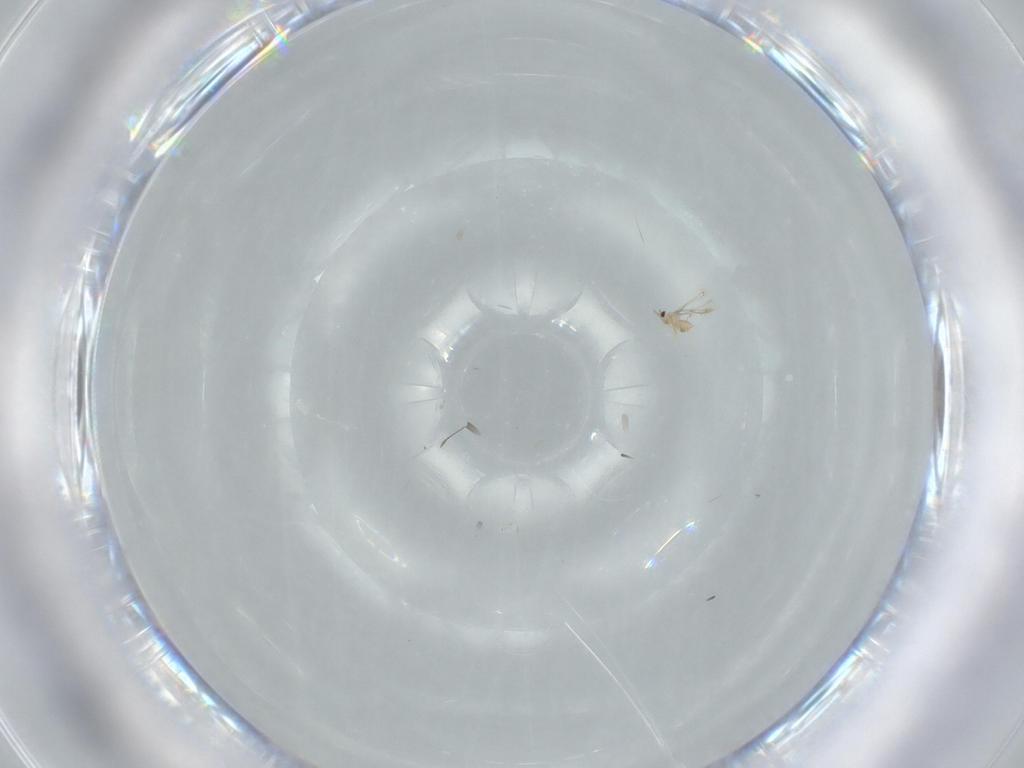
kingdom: Animalia
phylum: Arthropoda
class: Insecta
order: Hymenoptera
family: Mymaridae
